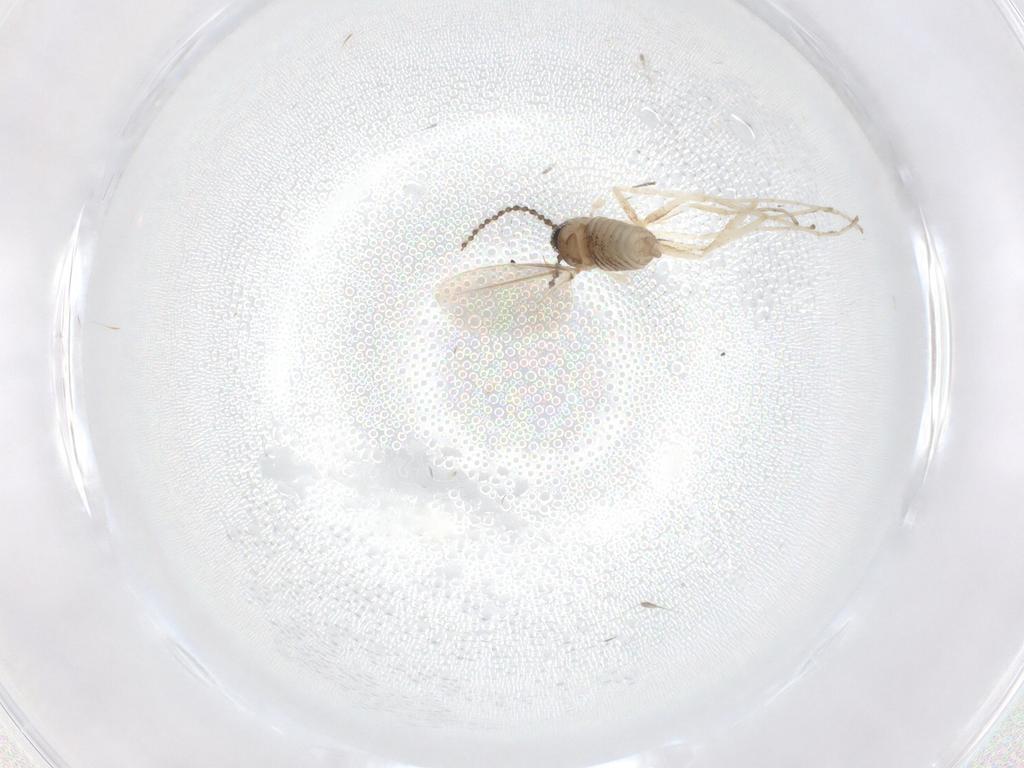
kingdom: Animalia
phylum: Arthropoda
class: Insecta
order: Diptera
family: Cecidomyiidae
